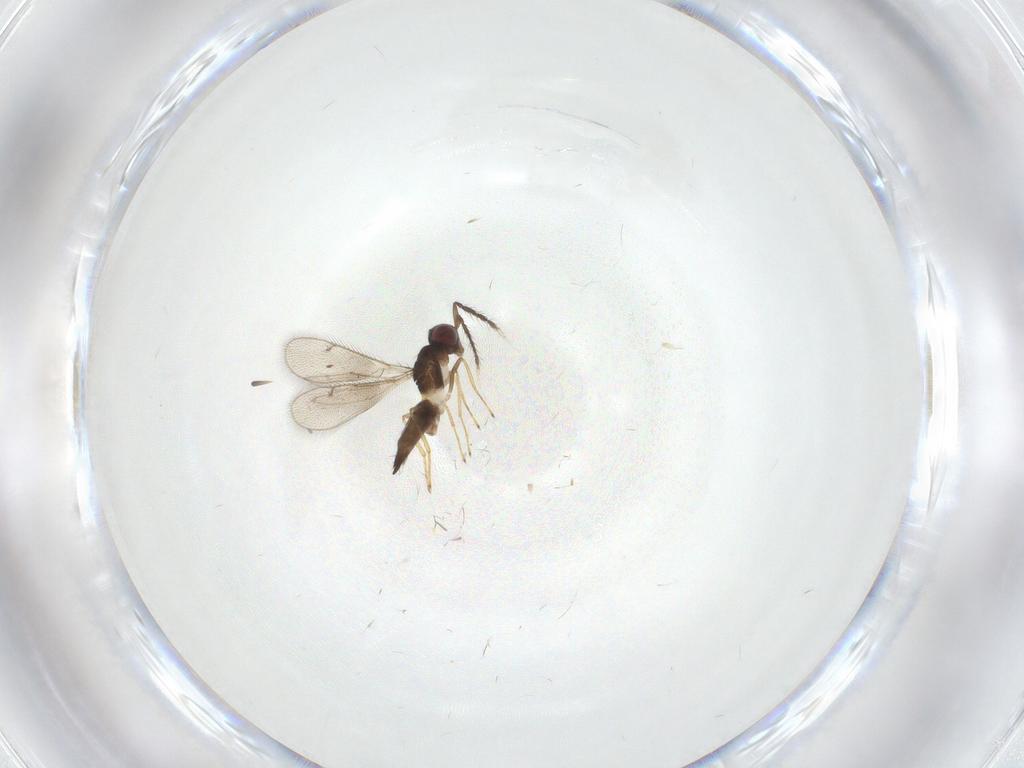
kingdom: Animalia
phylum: Arthropoda
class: Insecta
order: Hymenoptera
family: Eulophidae
